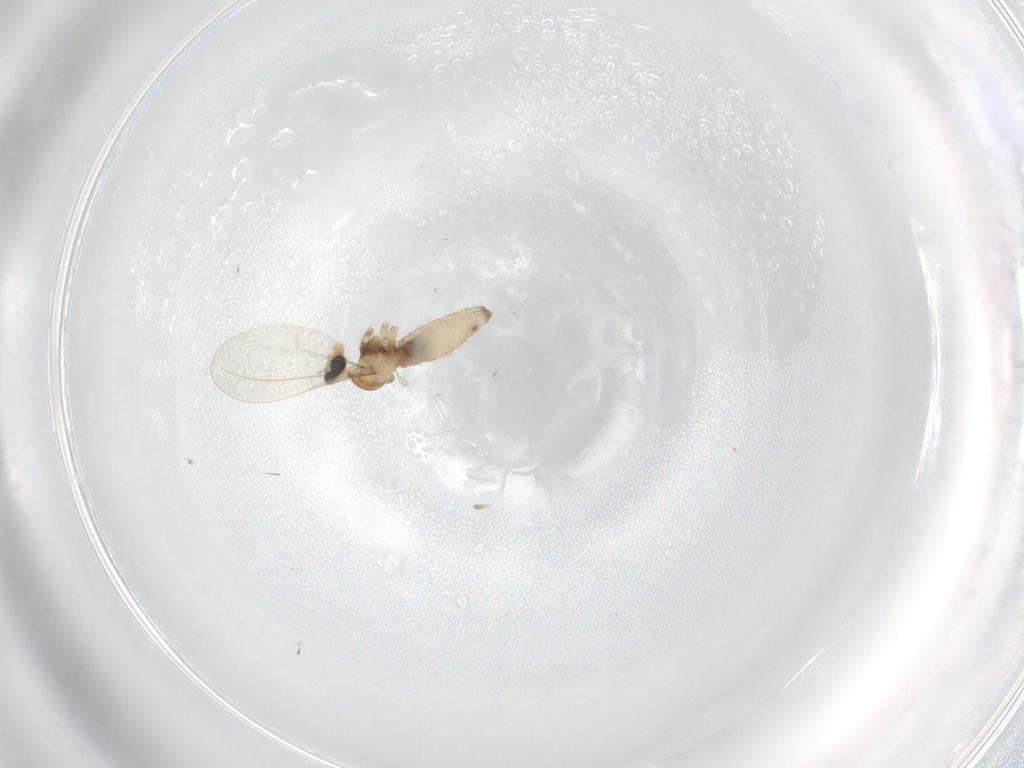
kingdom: Animalia
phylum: Arthropoda
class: Insecta
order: Diptera
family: Cecidomyiidae
